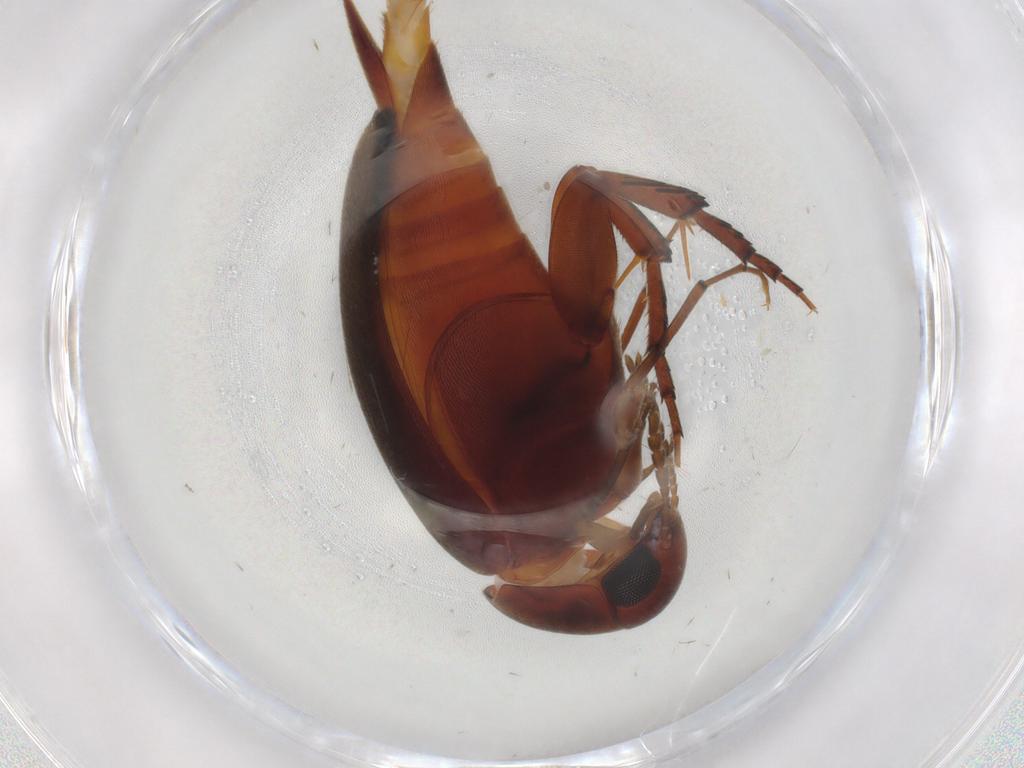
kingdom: Animalia
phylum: Arthropoda
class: Insecta
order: Coleoptera
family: Mordellidae
